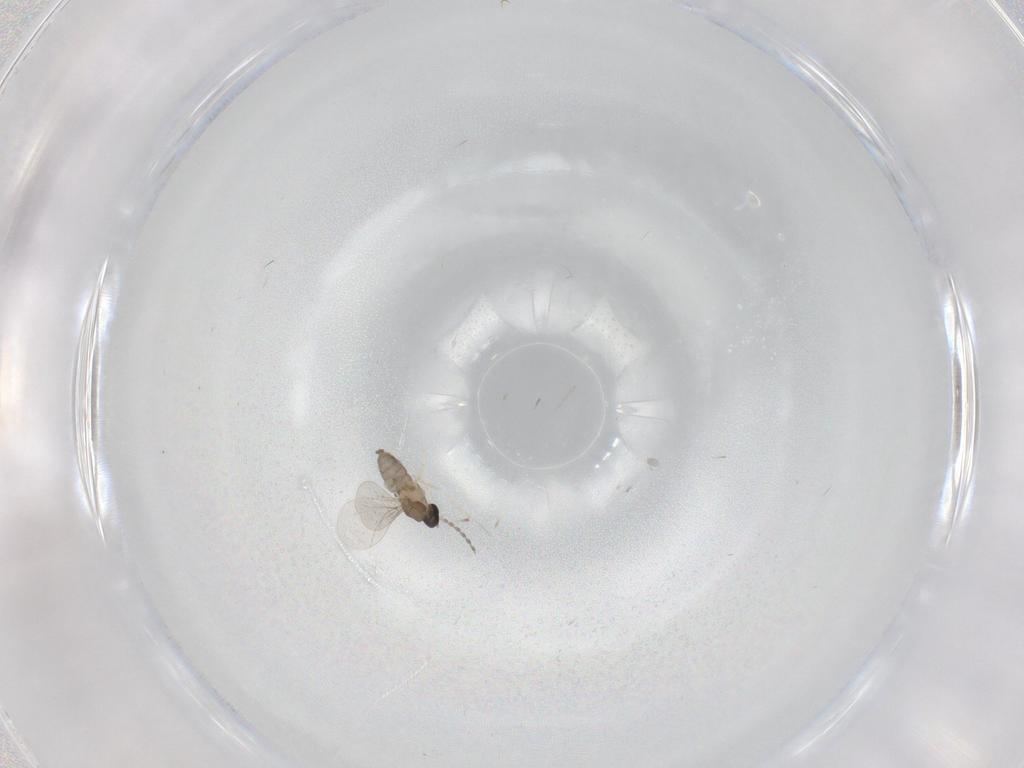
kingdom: Animalia
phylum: Arthropoda
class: Insecta
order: Diptera
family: Cecidomyiidae
